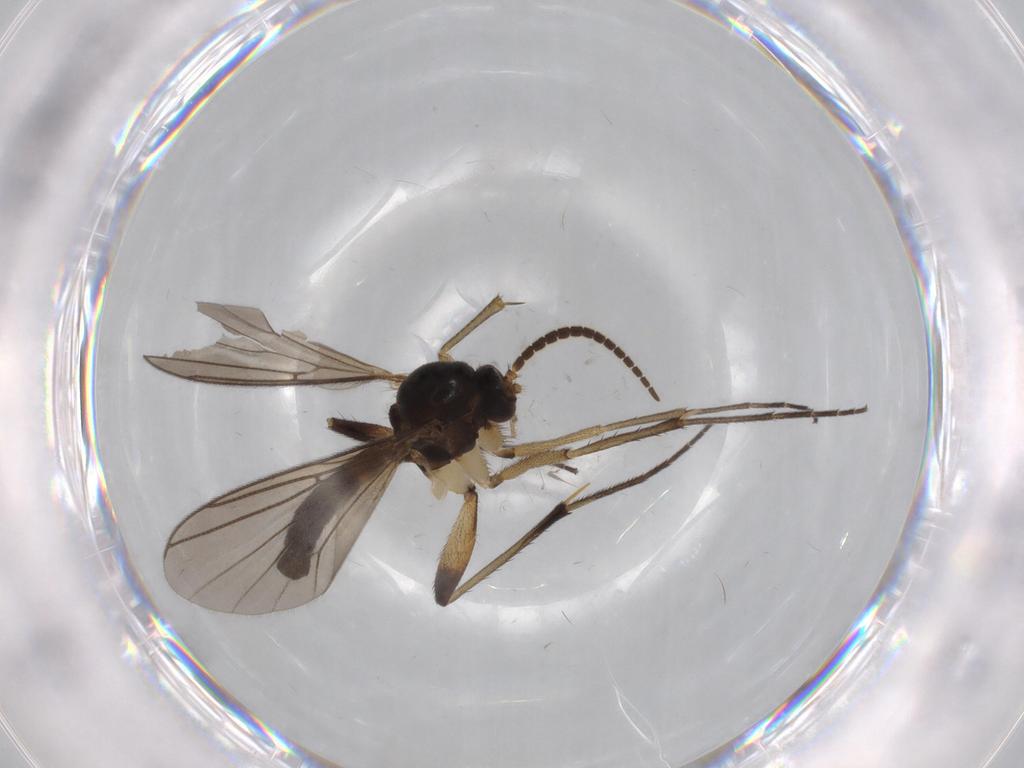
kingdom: Animalia
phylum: Arthropoda
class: Insecta
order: Diptera
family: Mycetophilidae
